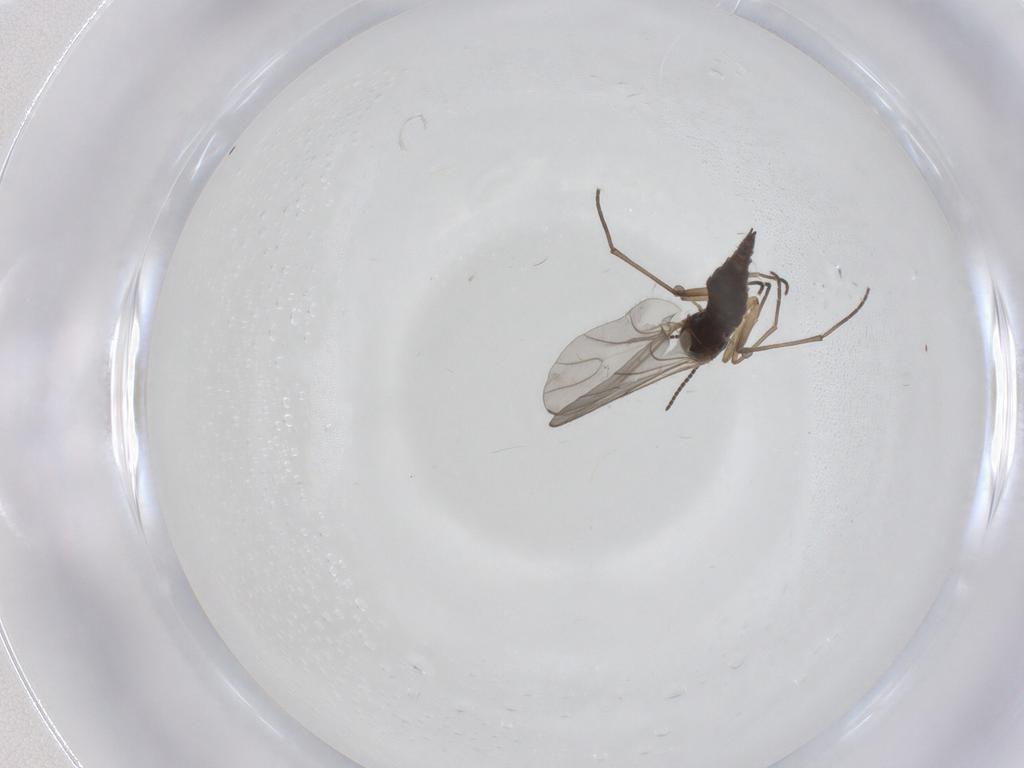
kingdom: Animalia
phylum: Arthropoda
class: Insecta
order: Diptera
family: Sciaridae
